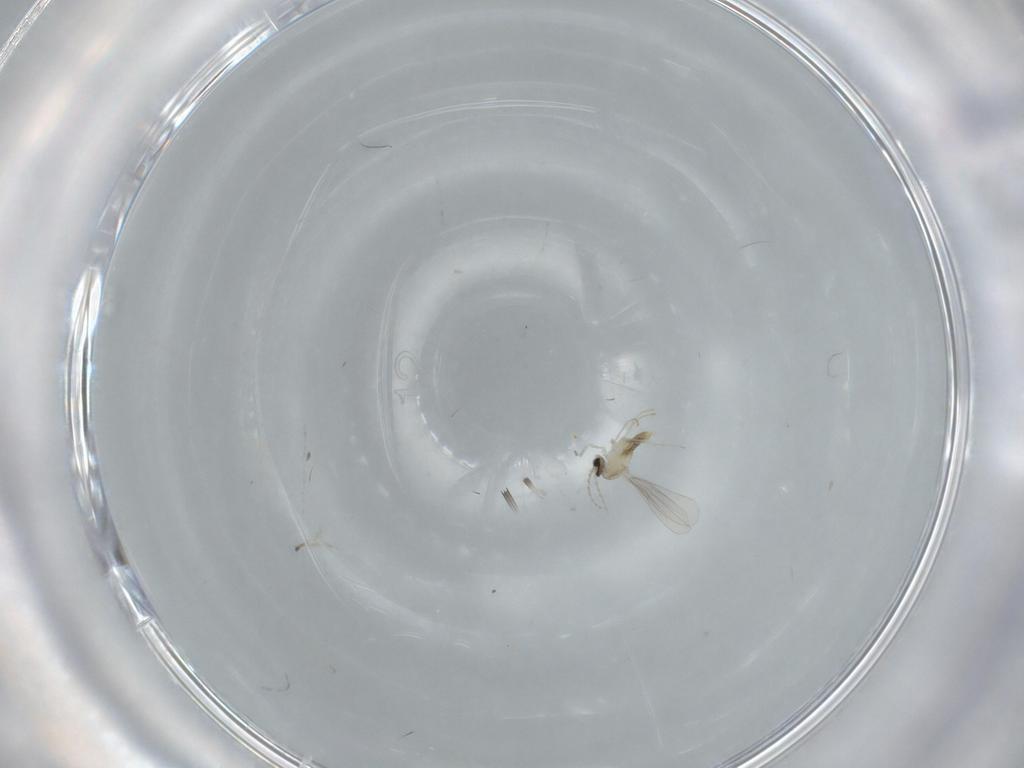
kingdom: Animalia
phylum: Arthropoda
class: Insecta
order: Diptera
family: Cecidomyiidae
